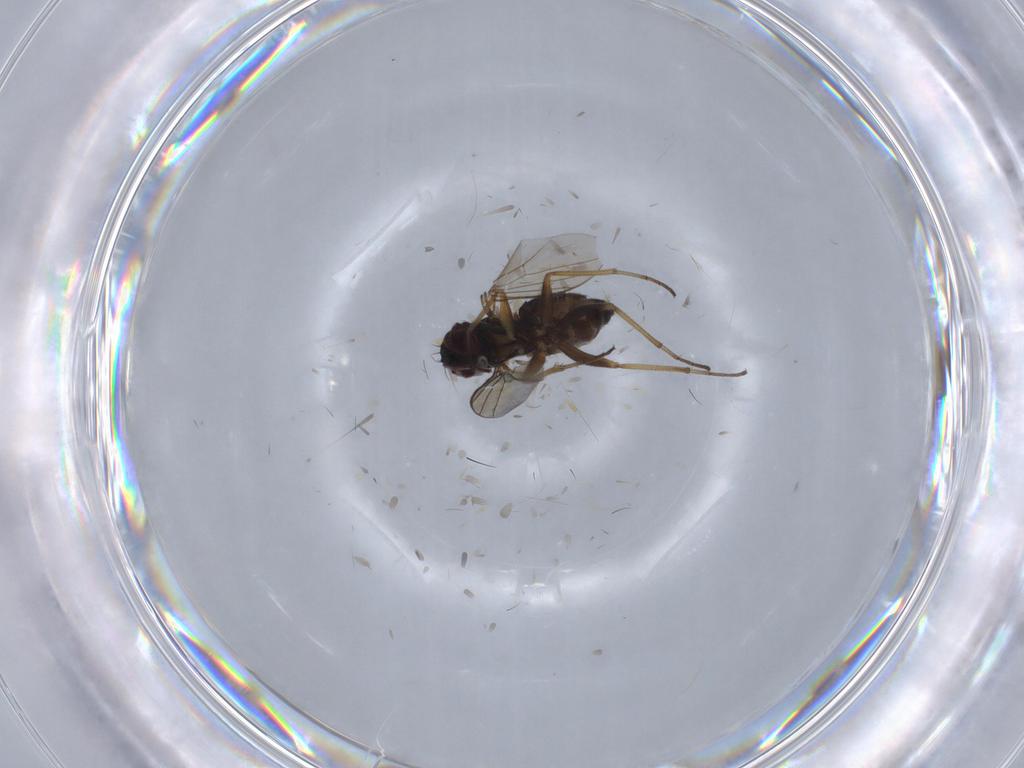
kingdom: Animalia
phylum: Arthropoda
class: Insecta
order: Diptera
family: Dolichopodidae
